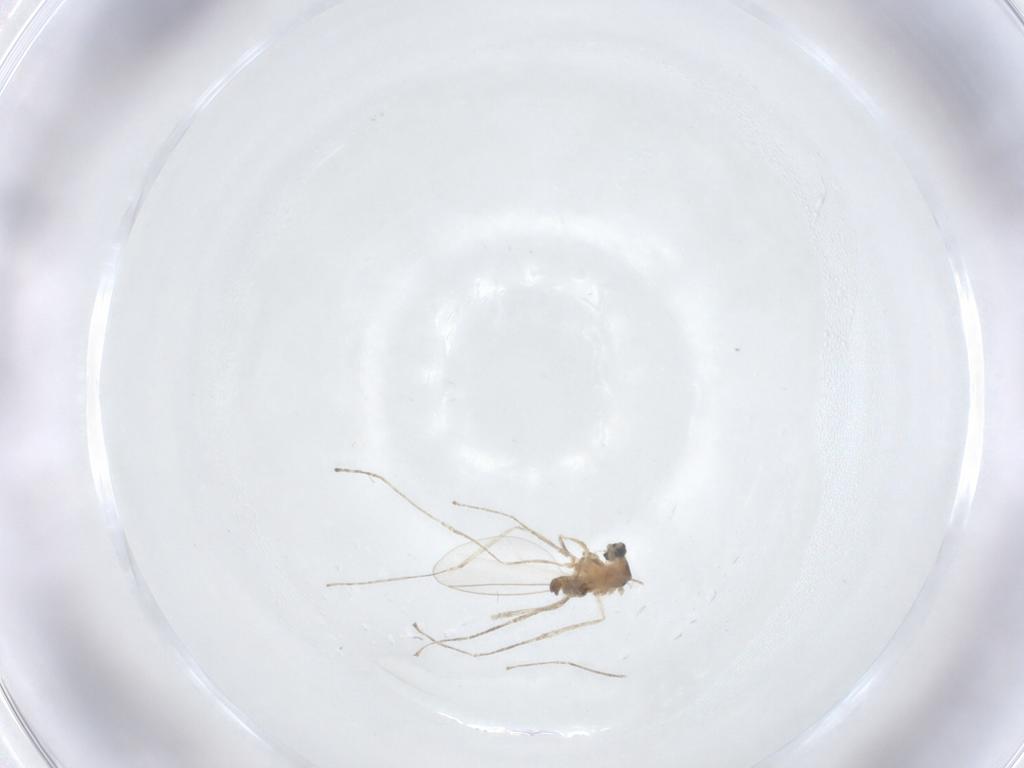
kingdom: Animalia
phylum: Arthropoda
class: Insecta
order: Diptera
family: Cecidomyiidae
